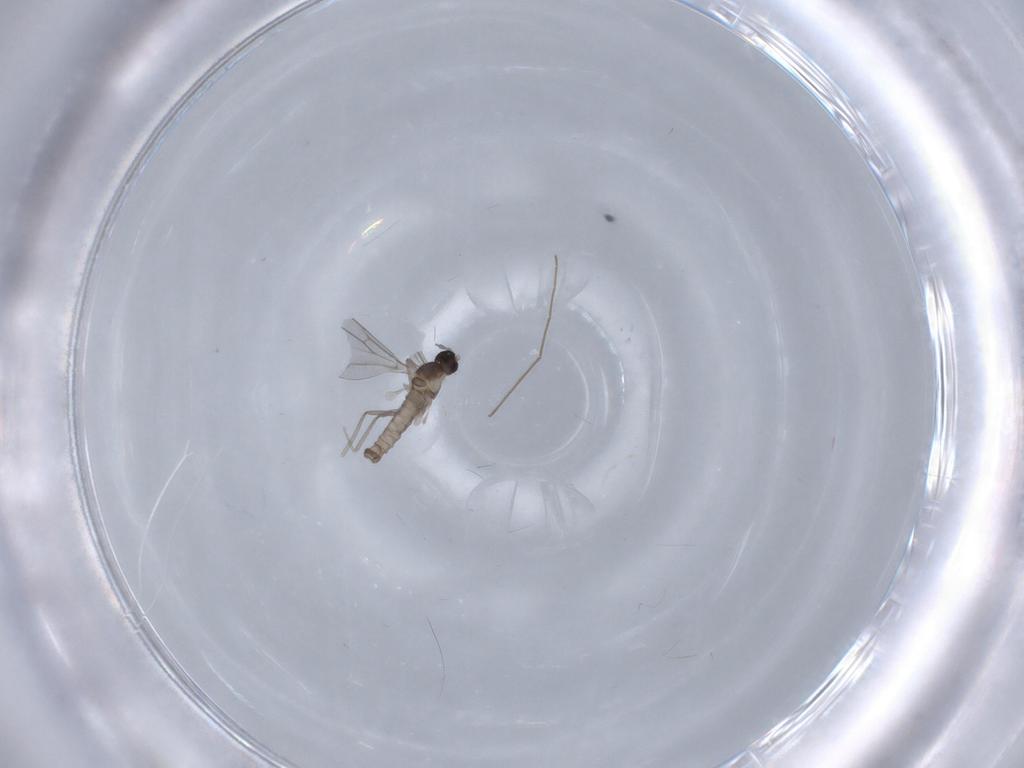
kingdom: Animalia
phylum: Arthropoda
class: Insecta
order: Diptera
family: Cecidomyiidae
